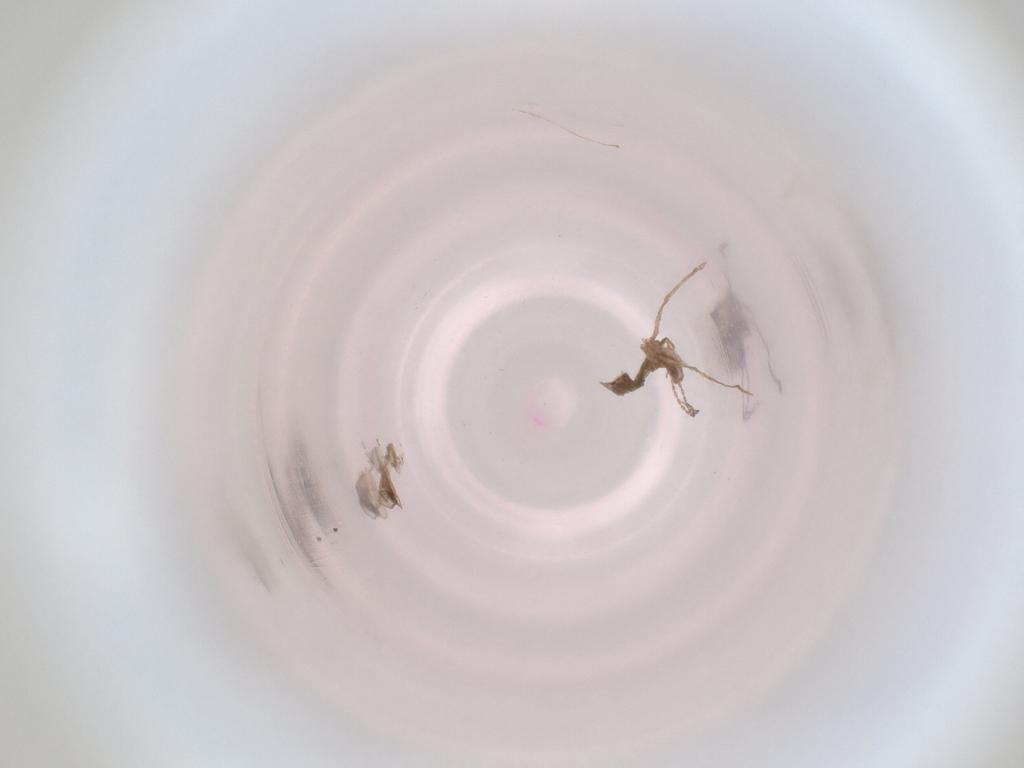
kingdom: Animalia
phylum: Arthropoda
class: Insecta
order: Diptera
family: Cecidomyiidae
